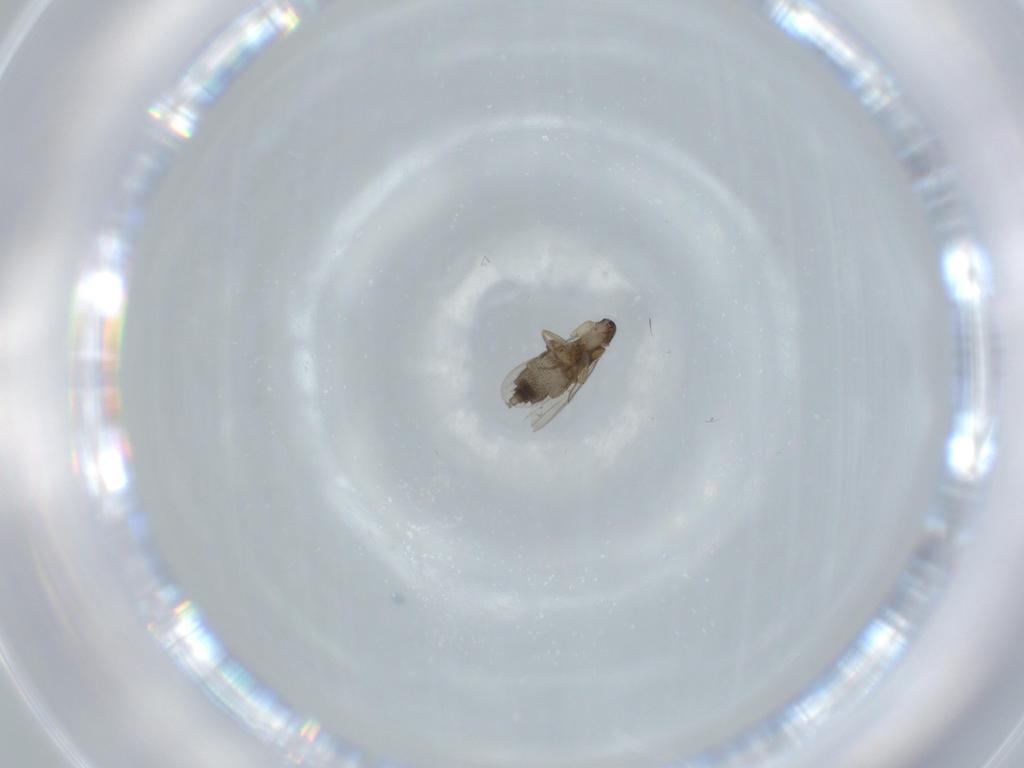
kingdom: Animalia
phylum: Arthropoda
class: Insecta
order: Diptera
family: Phoridae
